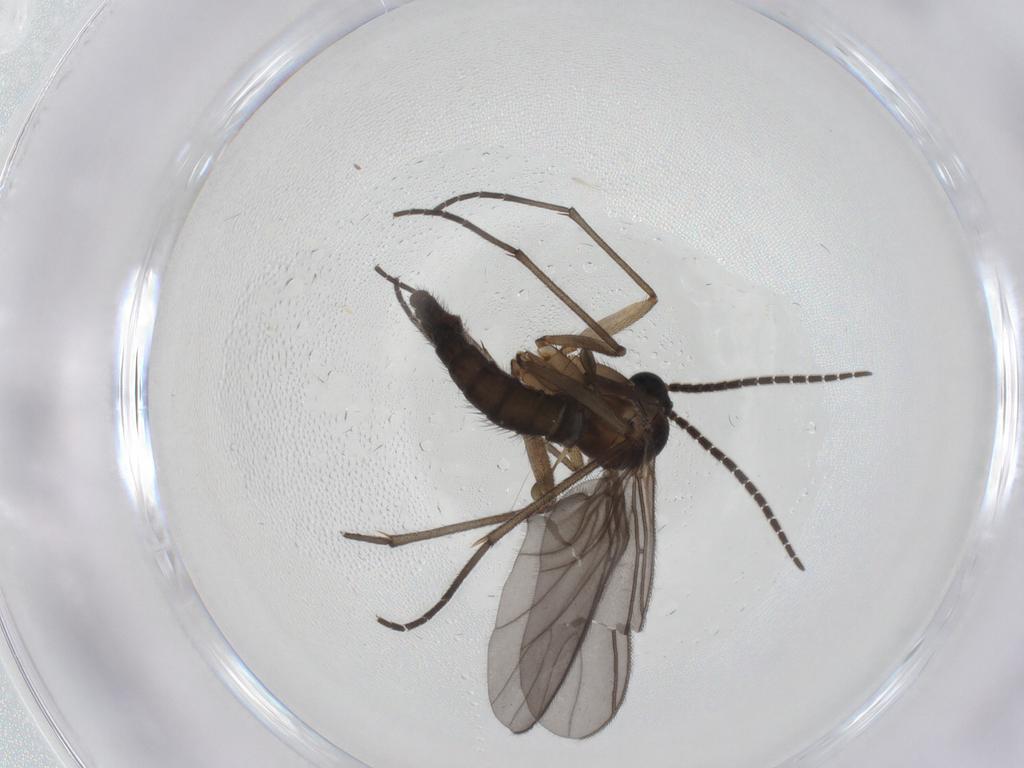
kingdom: Animalia
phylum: Arthropoda
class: Insecta
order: Diptera
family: Sciaridae
